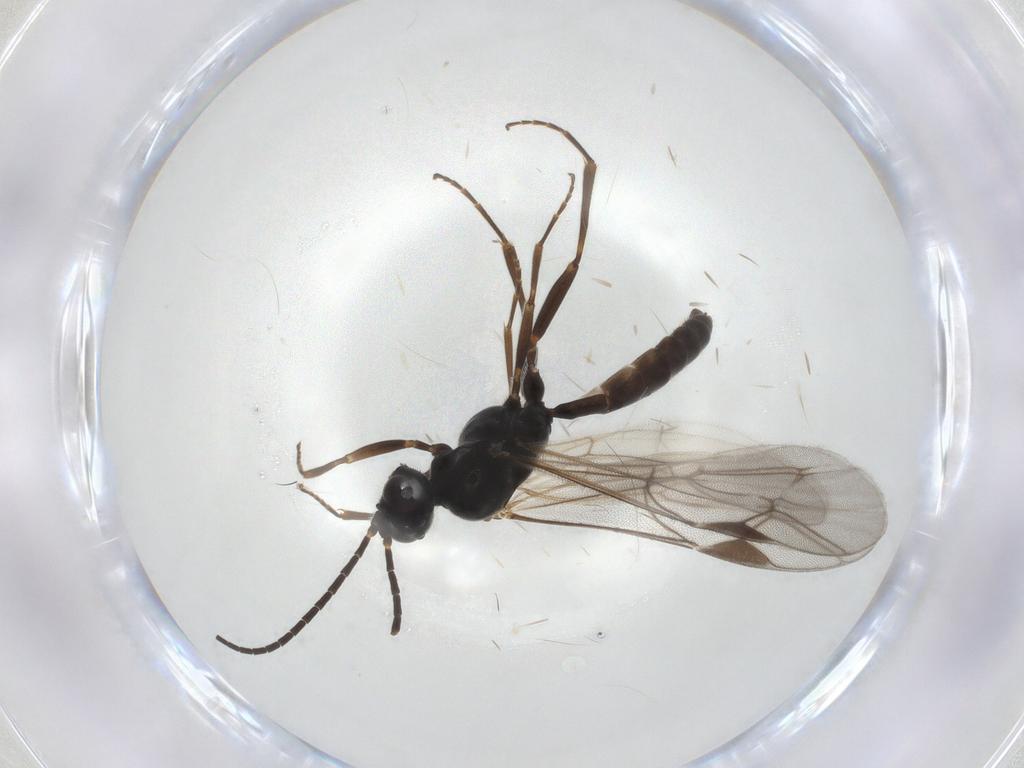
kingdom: Animalia
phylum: Arthropoda
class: Insecta
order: Hymenoptera
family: Ichneumonidae
